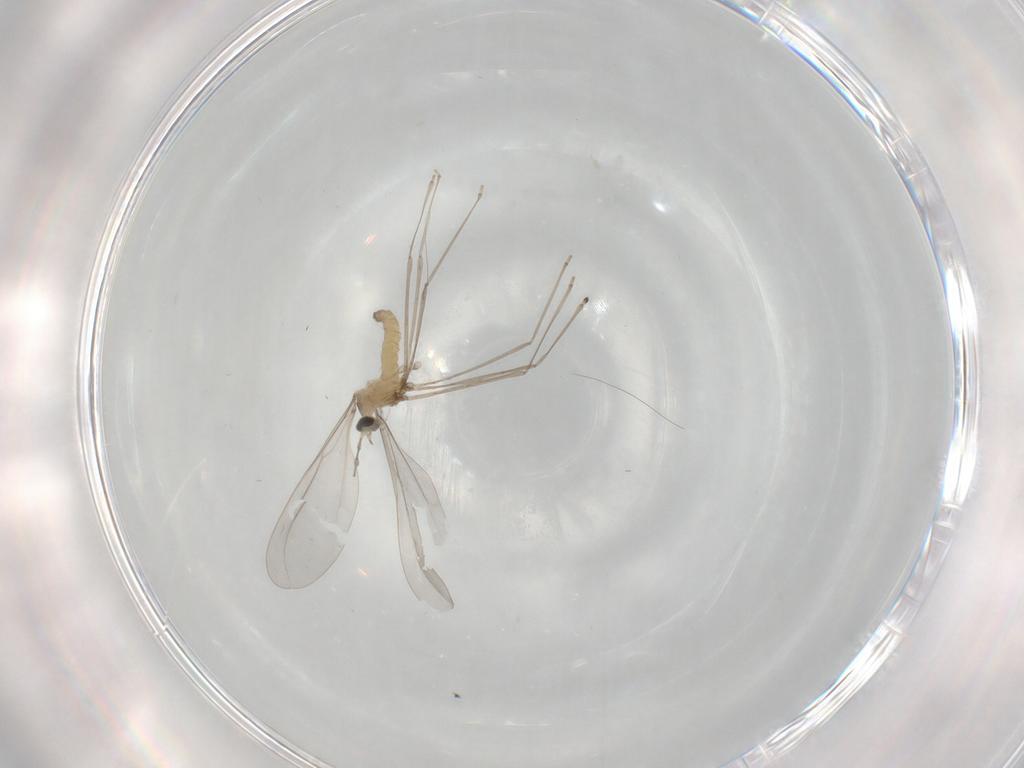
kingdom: Animalia
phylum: Arthropoda
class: Insecta
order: Diptera
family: Cecidomyiidae
